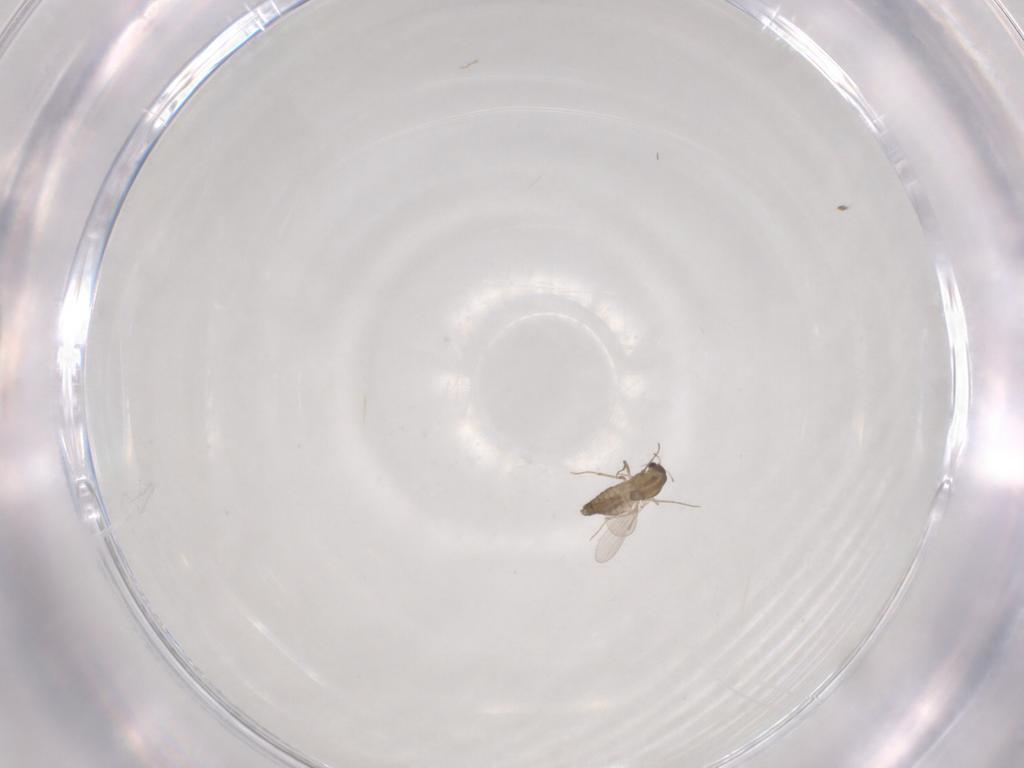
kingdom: Animalia
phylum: Arthropoda
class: Insecta
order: Diptera
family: Chironomidae
